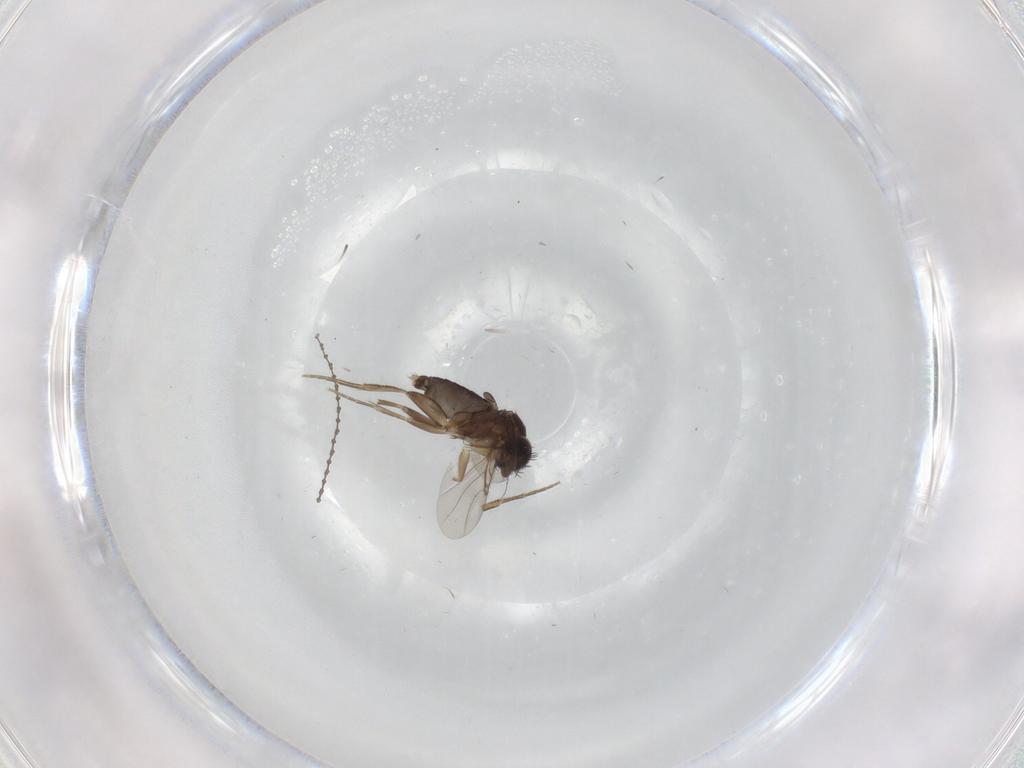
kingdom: Animalia
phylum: Arthropoda
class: Insecta
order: Diptera
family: Cecidomyiidae
